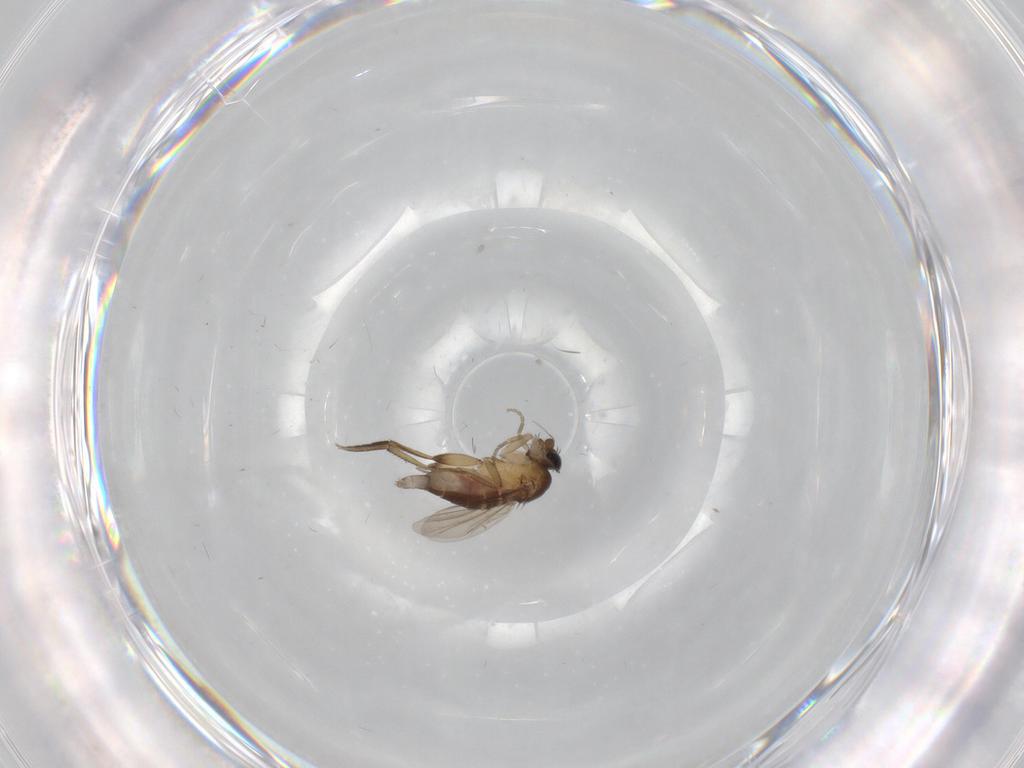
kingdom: Animalia
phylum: Arthropoda
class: Insecta
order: Diptera
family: Phoridae
